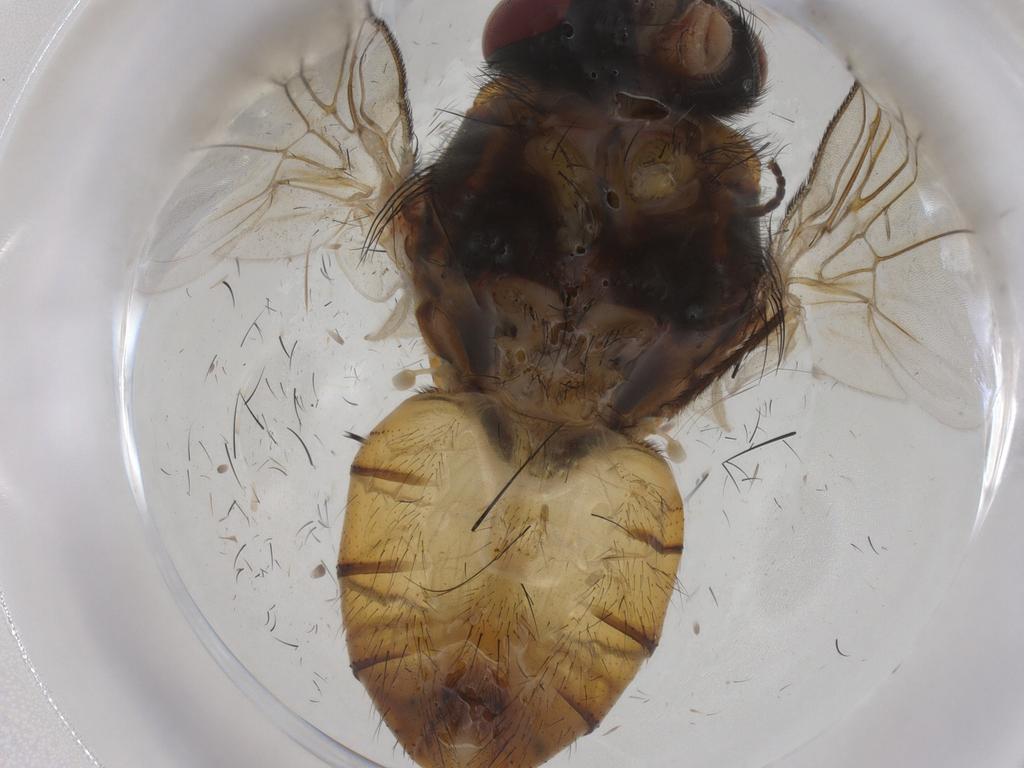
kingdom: Animalia
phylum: Arthropoda
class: Insecta
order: Diptera
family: Muscidae
